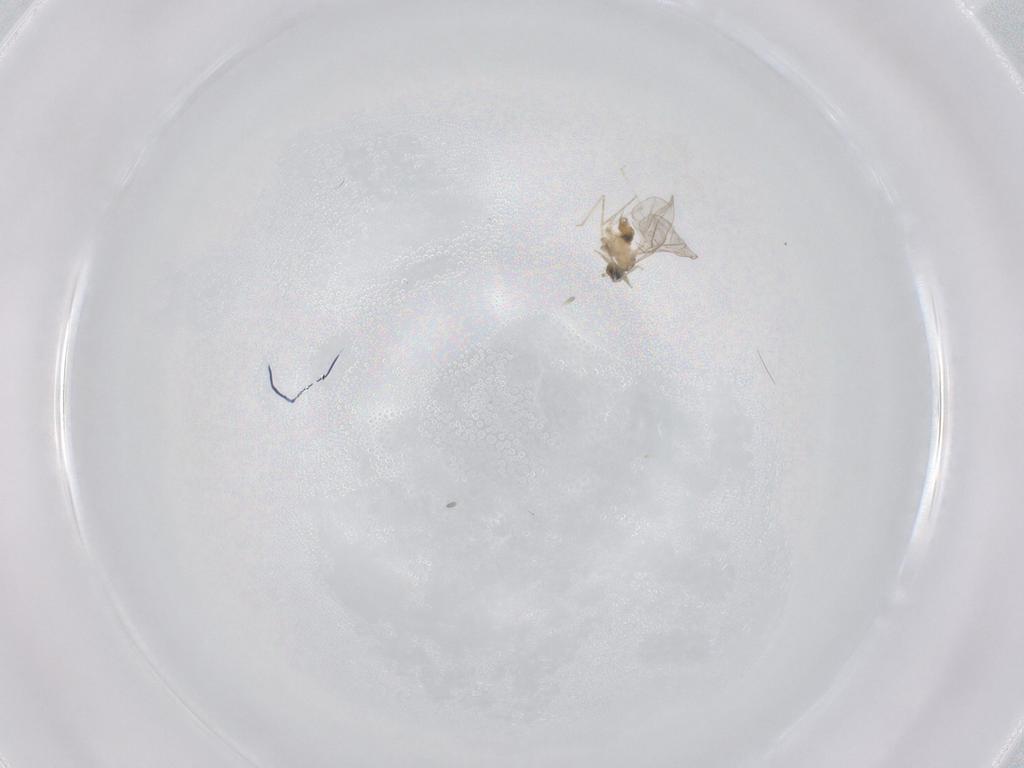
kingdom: Animalia
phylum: Arthropoda
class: Insecta
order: Diptera
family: Cecidomyiidae
